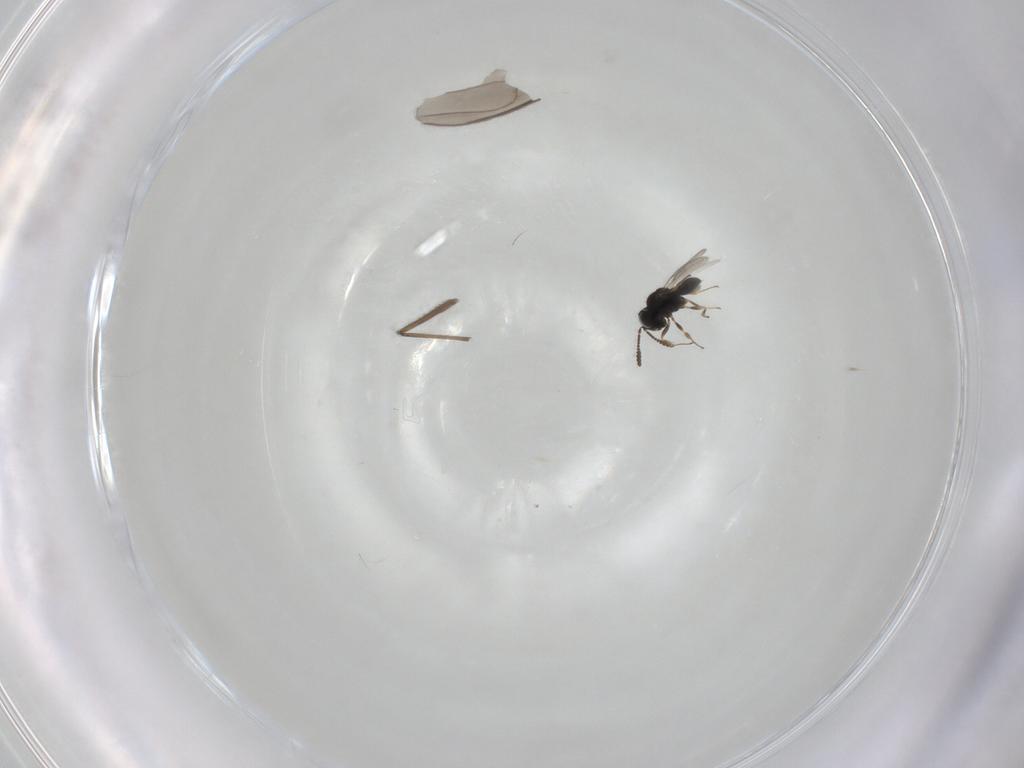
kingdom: Animalia
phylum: Arthropoda
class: Insecta
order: Hymenoptera
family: Scelionidae
